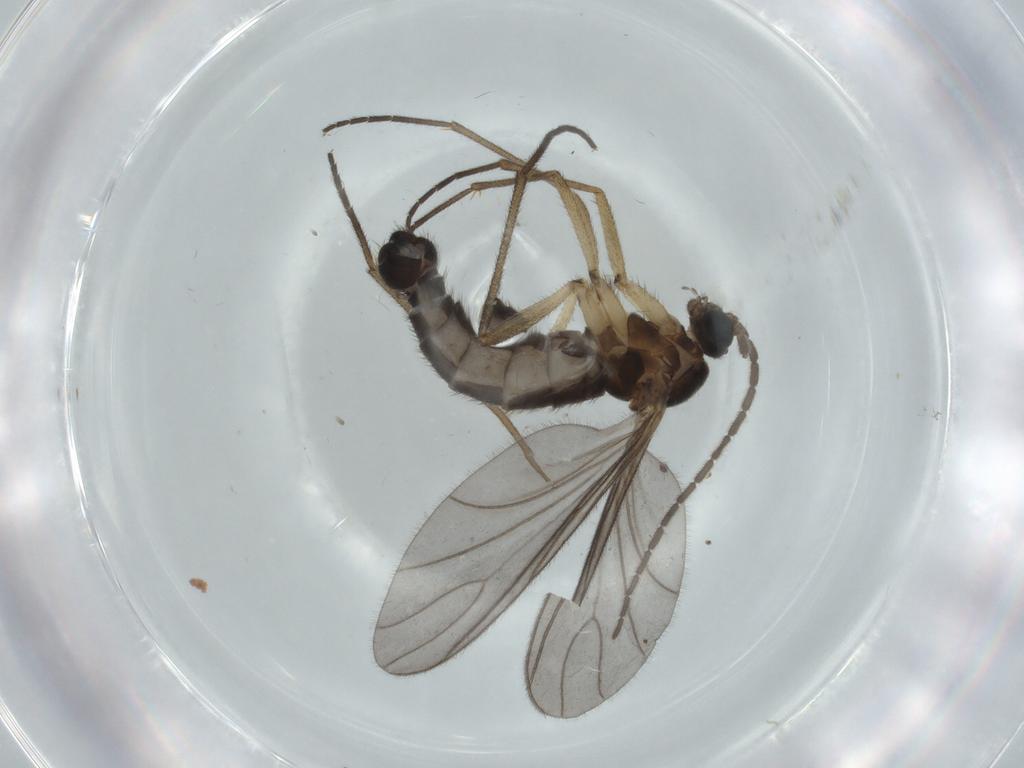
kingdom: Animalia
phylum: Arthropoda
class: Insecta
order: Diptera
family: Sciaridae
